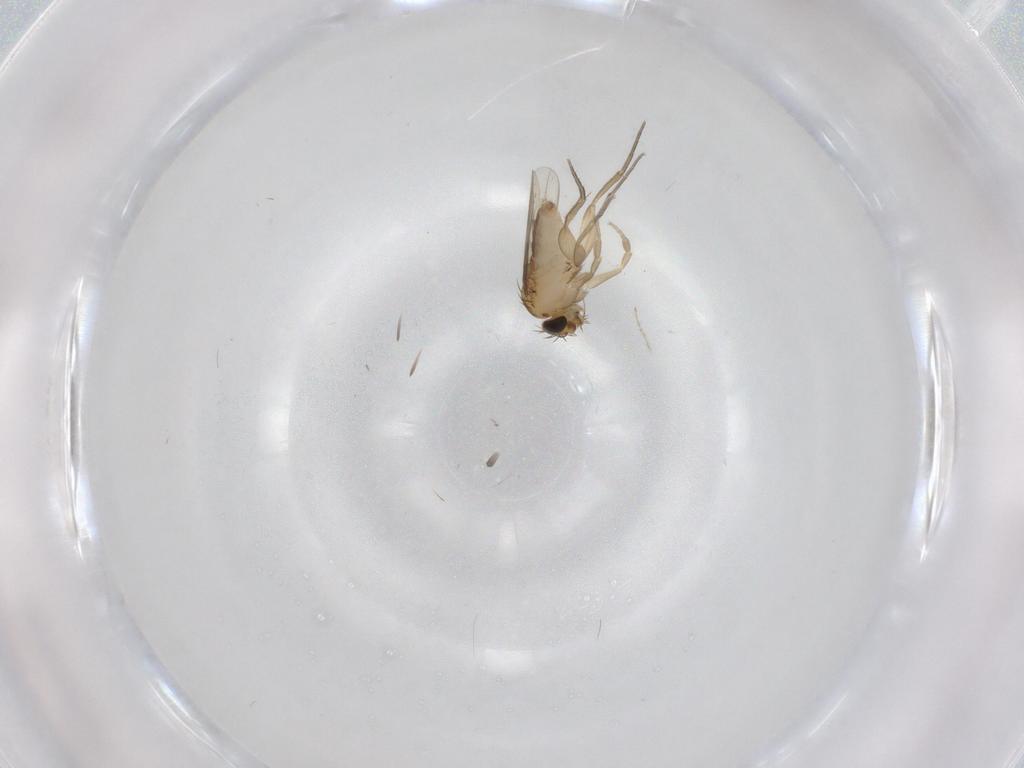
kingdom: Animalia
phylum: Arthropoda
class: Insecta
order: Diptera
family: Phoridae
